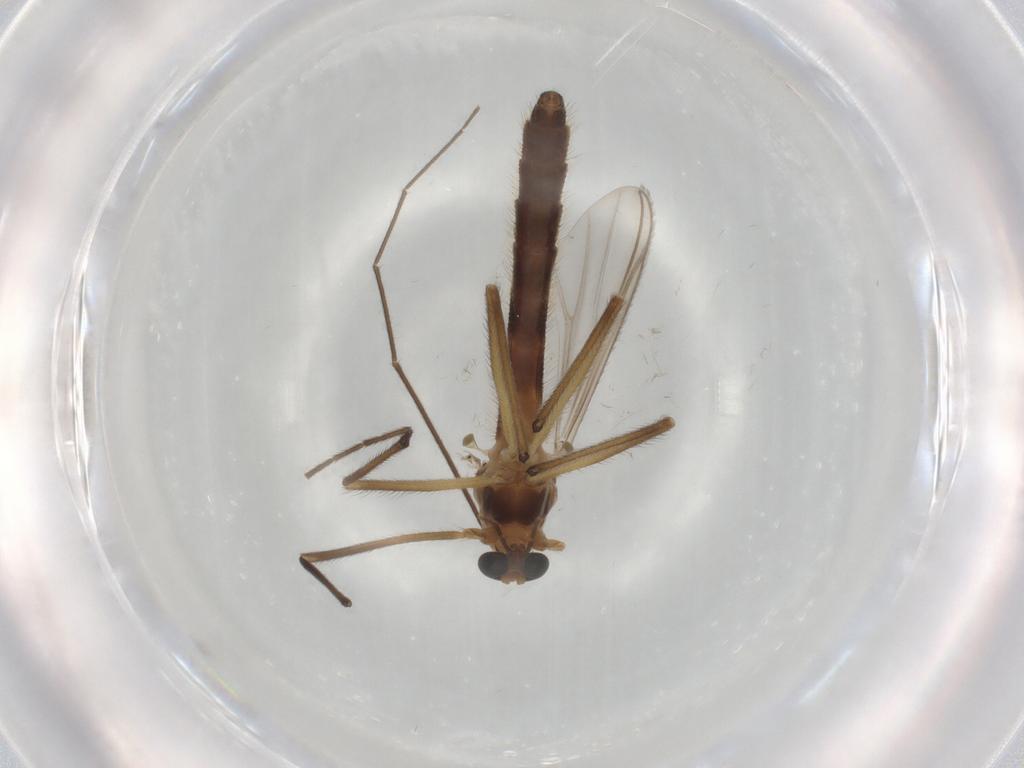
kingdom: Animalia
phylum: Arthropoda
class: Insecta
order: Diptera
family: Chironomidae
